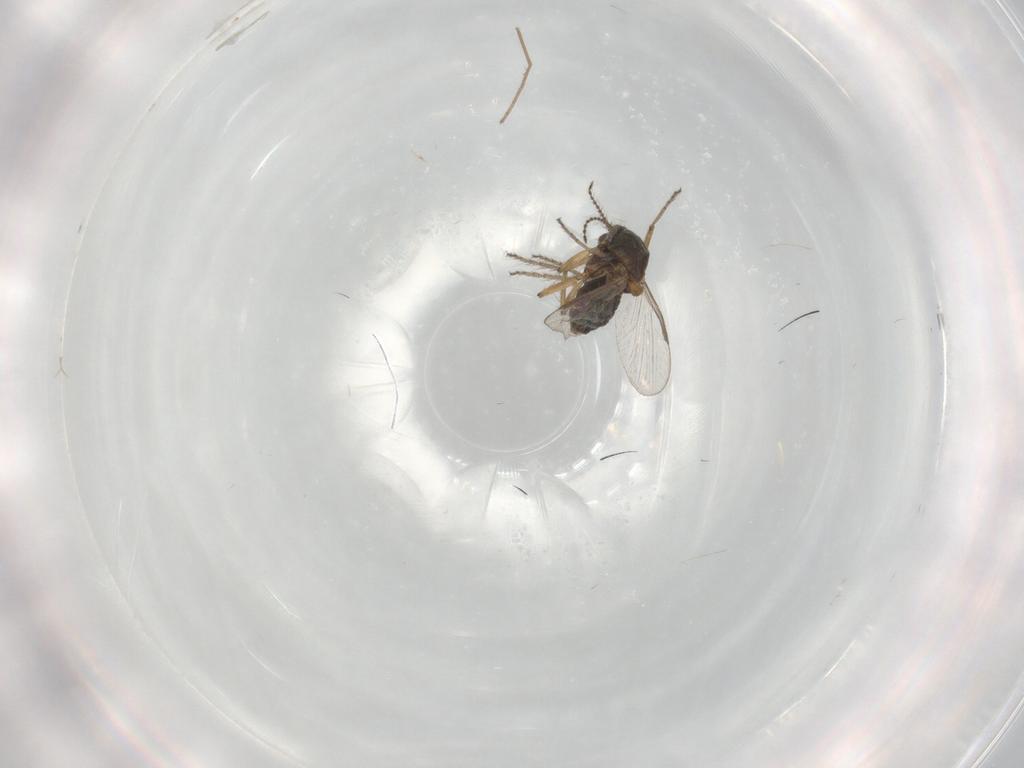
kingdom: Animalia
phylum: Arthropoda
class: Insecta
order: Diptera
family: Ceratopogonidae
